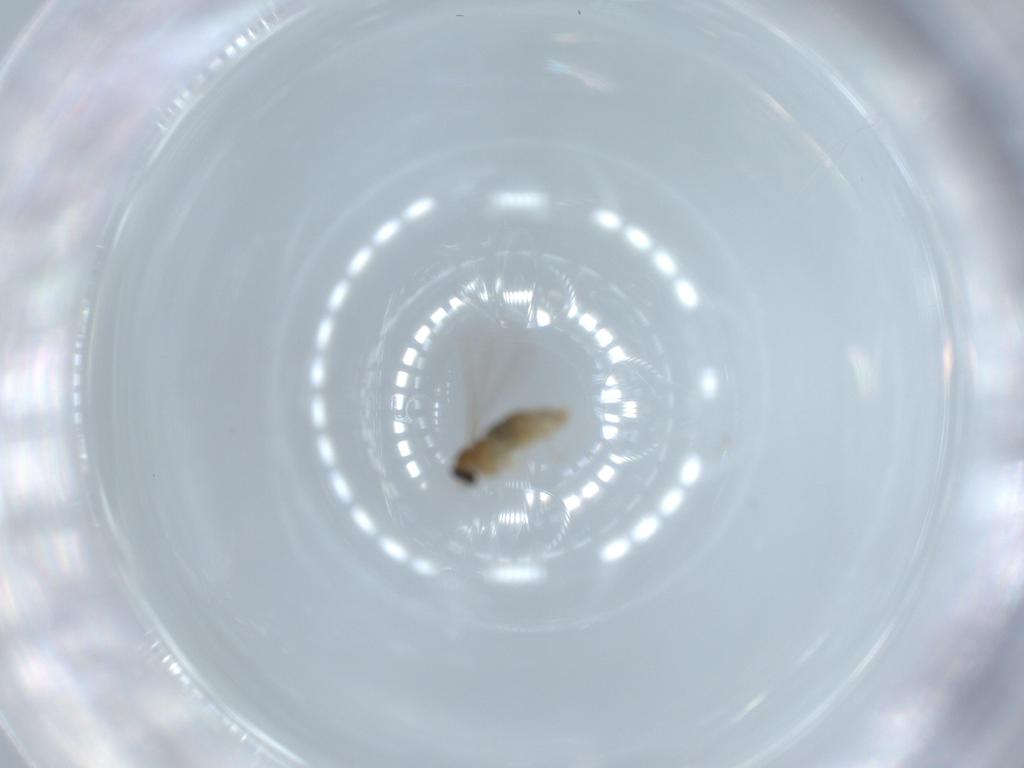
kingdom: Animalia
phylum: Arthropoda
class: Insecta
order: Diptera
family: Cecidomyiidae
